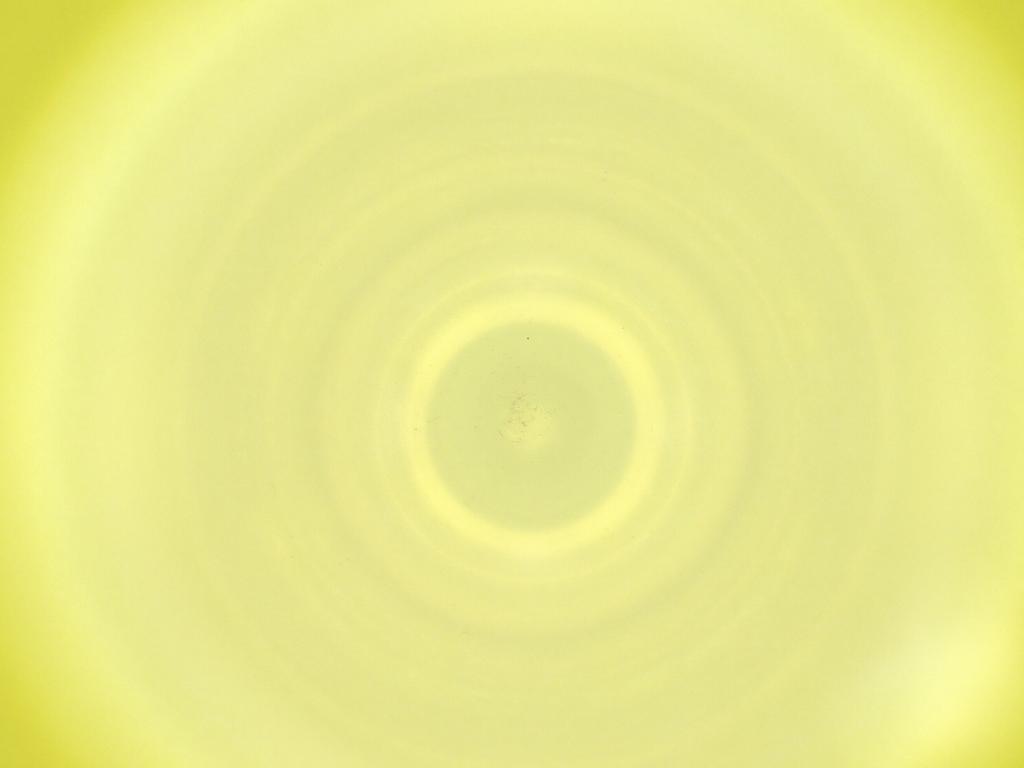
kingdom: Animalia
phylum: Arthropoda
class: Insecta
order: Diptera
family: Cecidomyiidae
